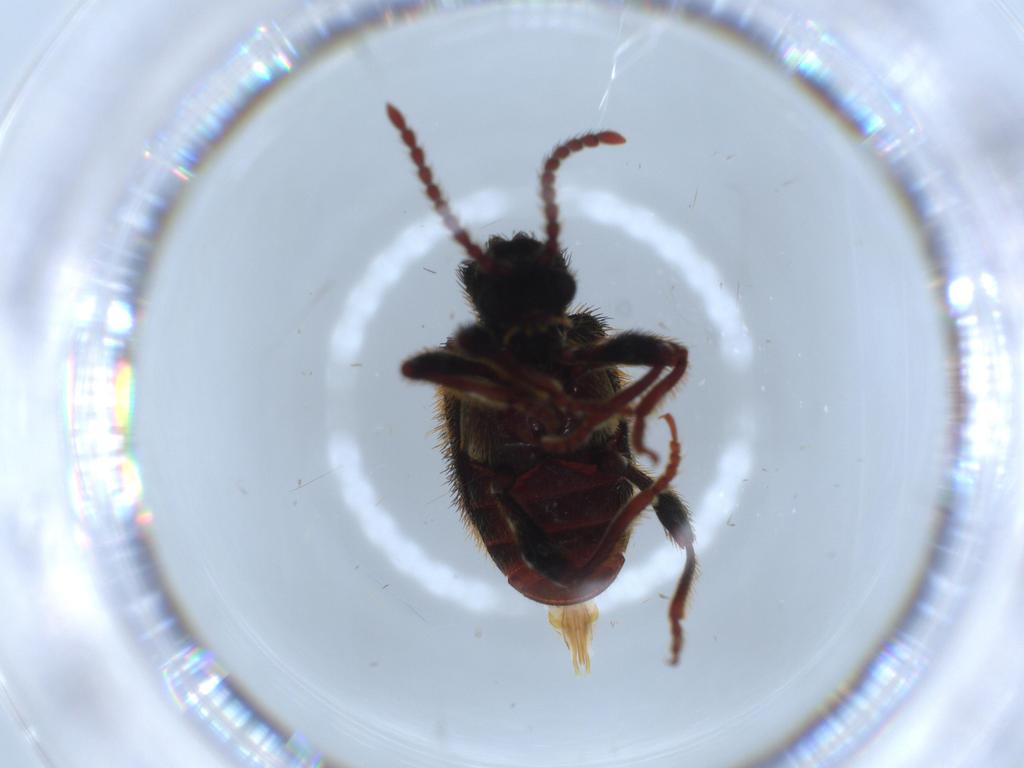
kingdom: Animalia
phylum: Arthropoda
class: Insecta
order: Coleoptera
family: Ptinidae
